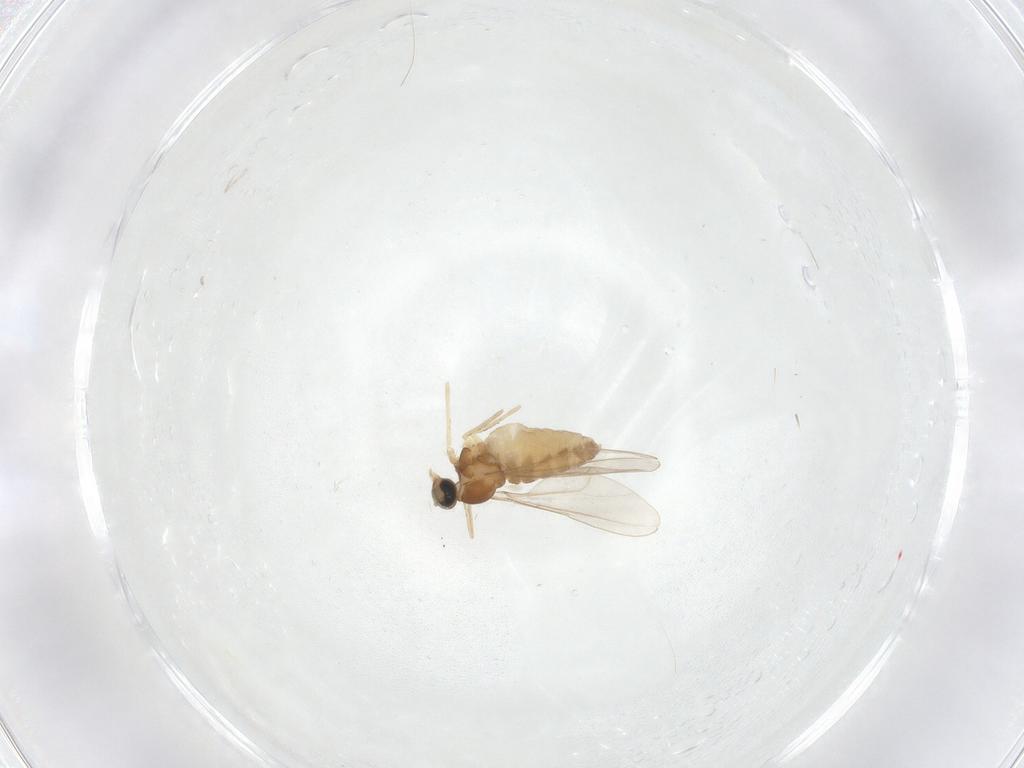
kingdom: Animalia
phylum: Arthropoda
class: Insecta
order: Diptera
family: Cecidomyiidae
